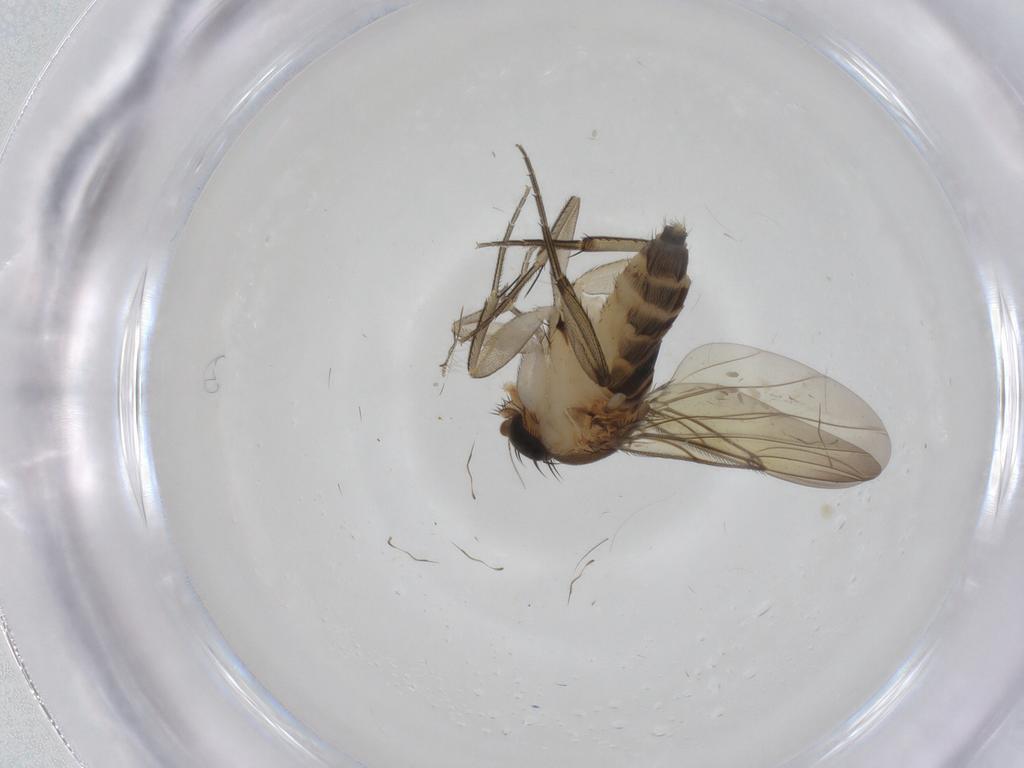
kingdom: Animalia
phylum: Arthropoda
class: Insecta
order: Diptera
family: Phoridae
